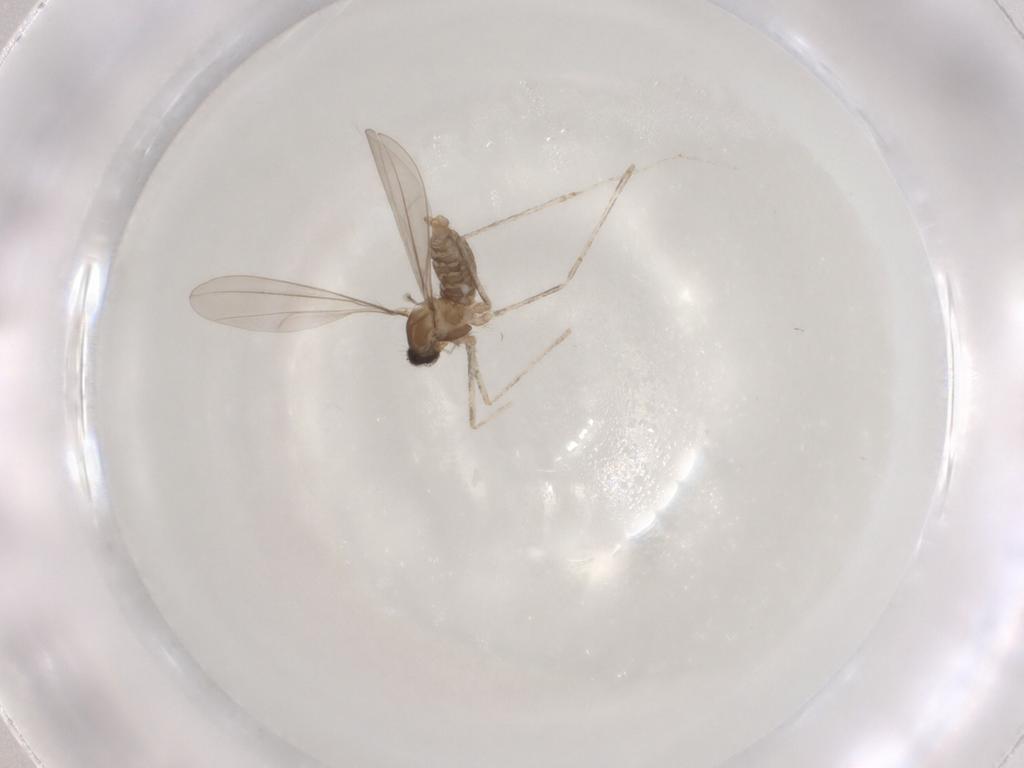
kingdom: Animalia
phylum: Arthropoda
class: Insecta
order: Diptera
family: Cecidomyiidae
